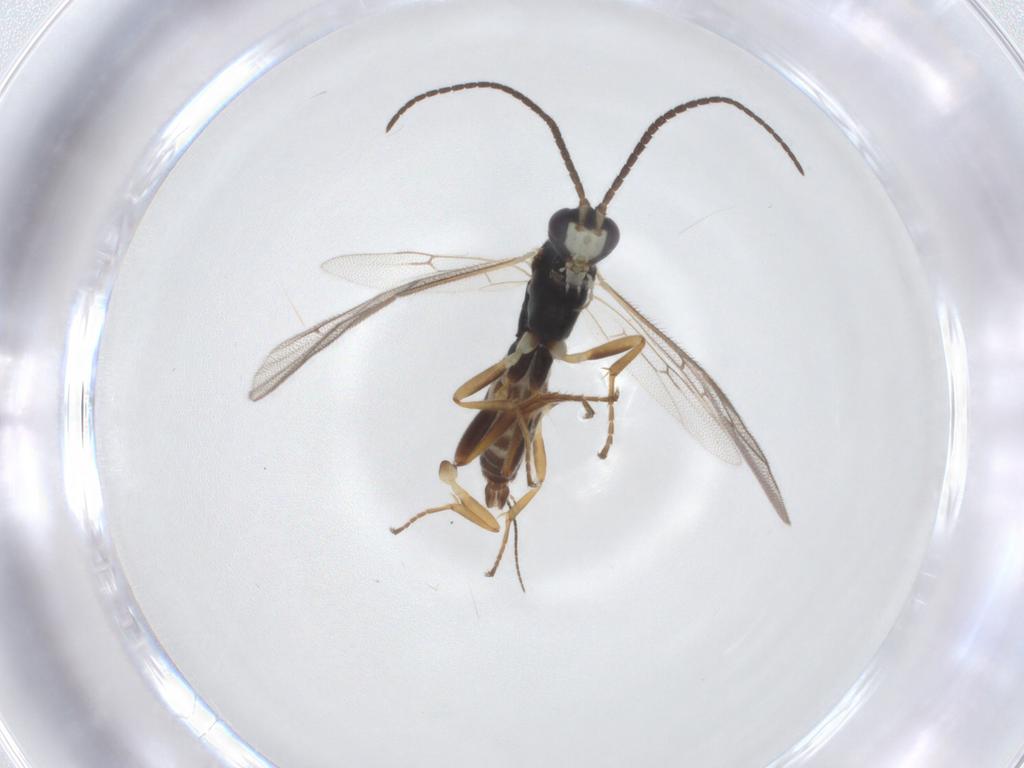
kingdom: Animalia
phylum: Arthropoda
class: Insecta
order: Hymenoptera
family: Ichneumonidae
